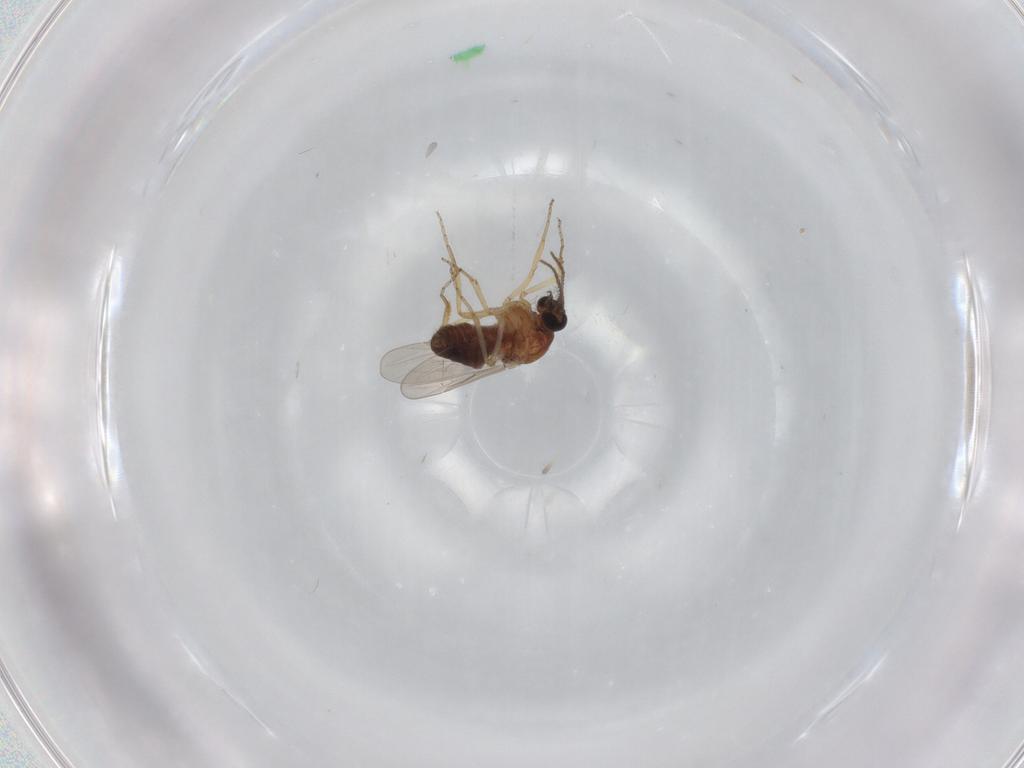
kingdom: Animalia
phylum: Arthropoda
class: Insecta
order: Diptera
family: Ceratopogonidae
